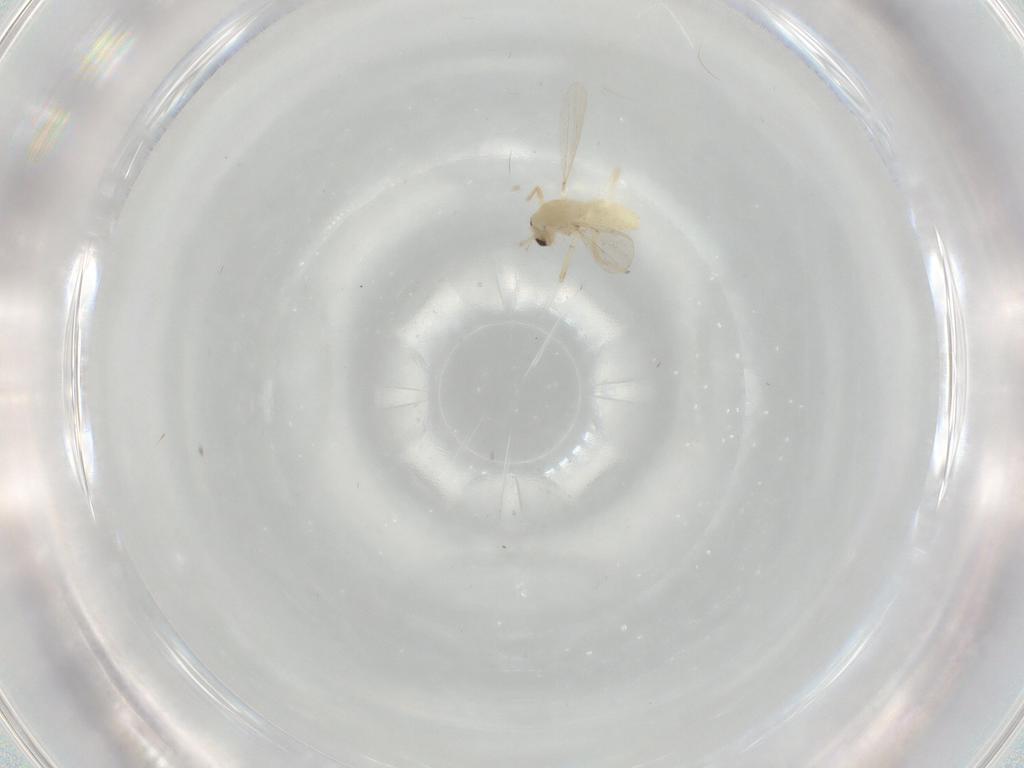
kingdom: Animalia
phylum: Arthropoda
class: Insecta
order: Diptera
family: Chironomidae
